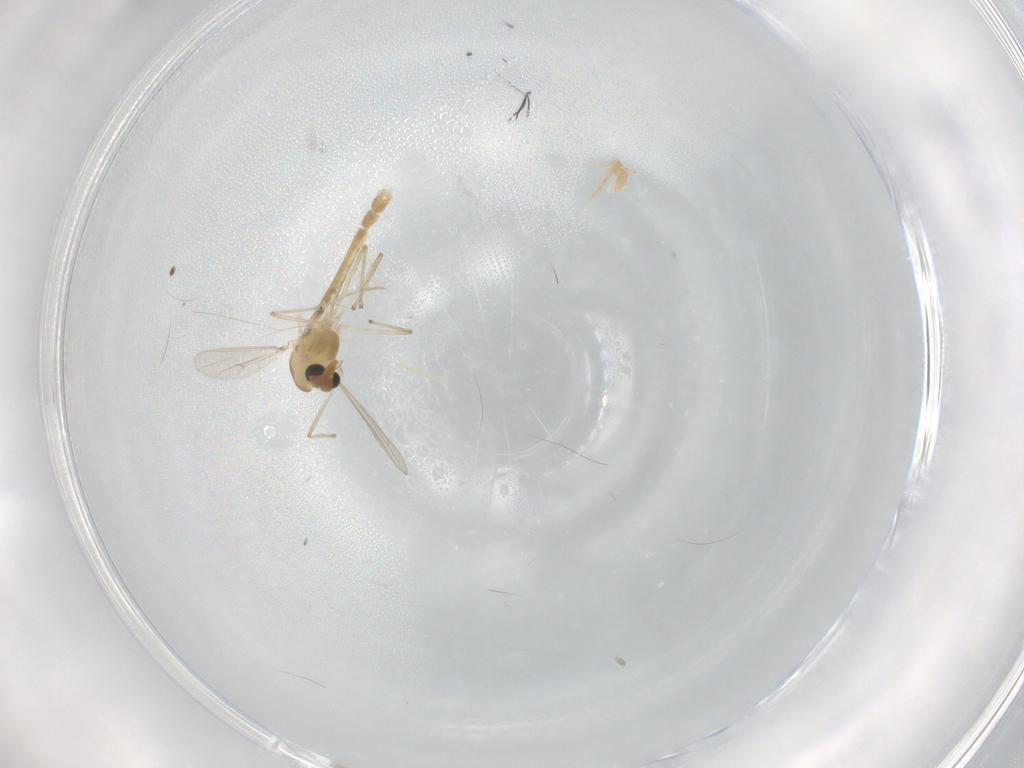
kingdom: Animalia
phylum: Arthropoda
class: Insecta
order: Diptera
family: Chironomidae
